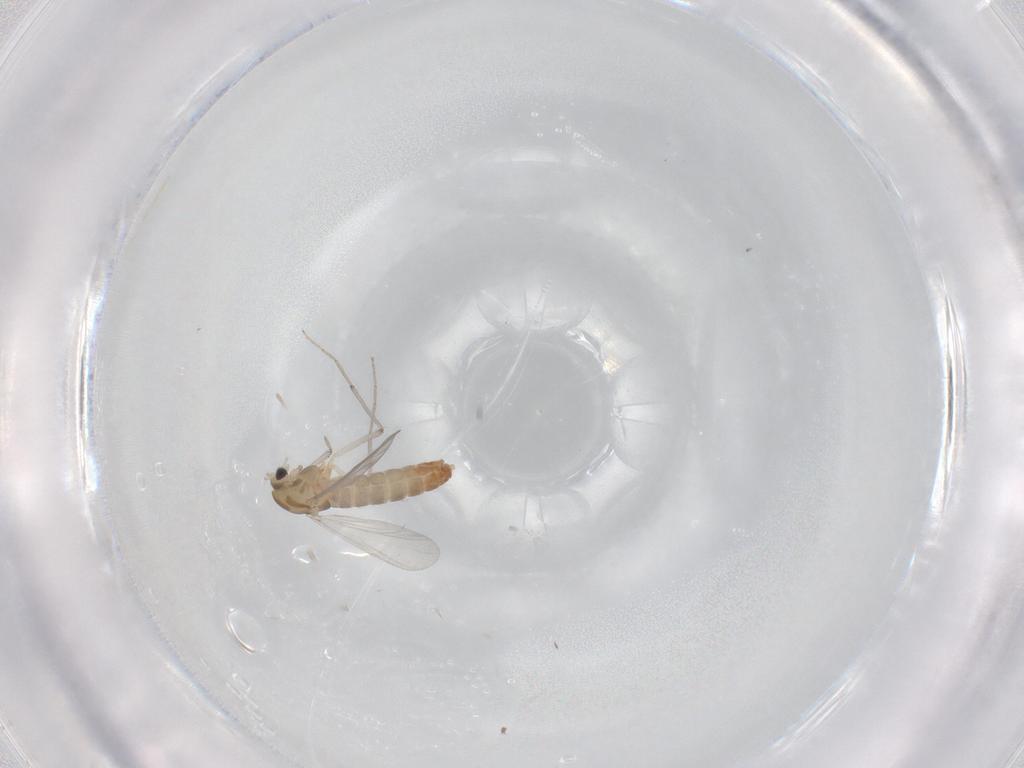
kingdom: Animalia
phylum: Arthropoda
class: Insecta
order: Diptera
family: Chironomidae
